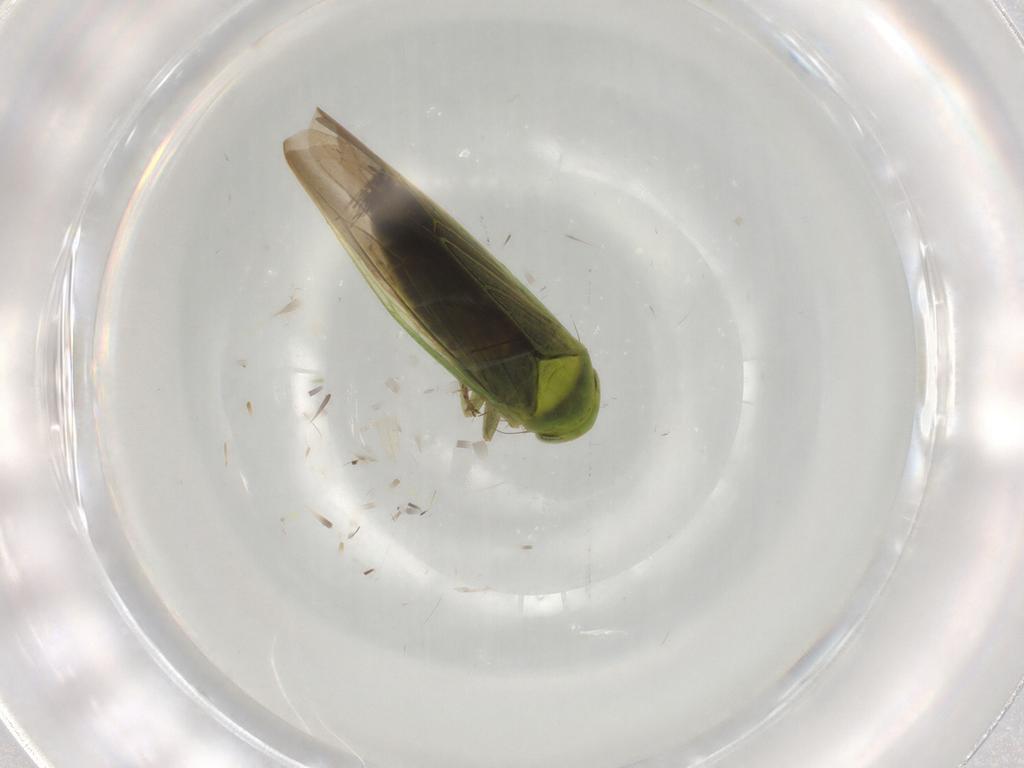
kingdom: Animalia
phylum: Arthropoda
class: Insecta
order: Hemiptera
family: Cicadellidae
